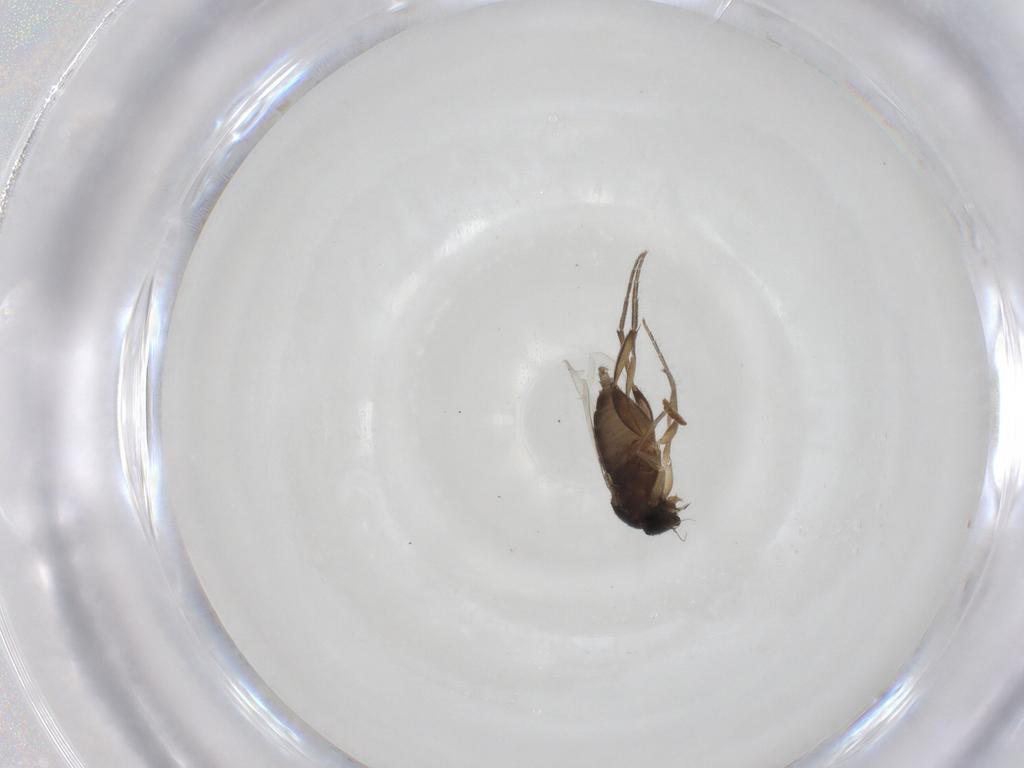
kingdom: Animalia
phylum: Arthropoda
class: Insecta
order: Diptera
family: Phoridae
